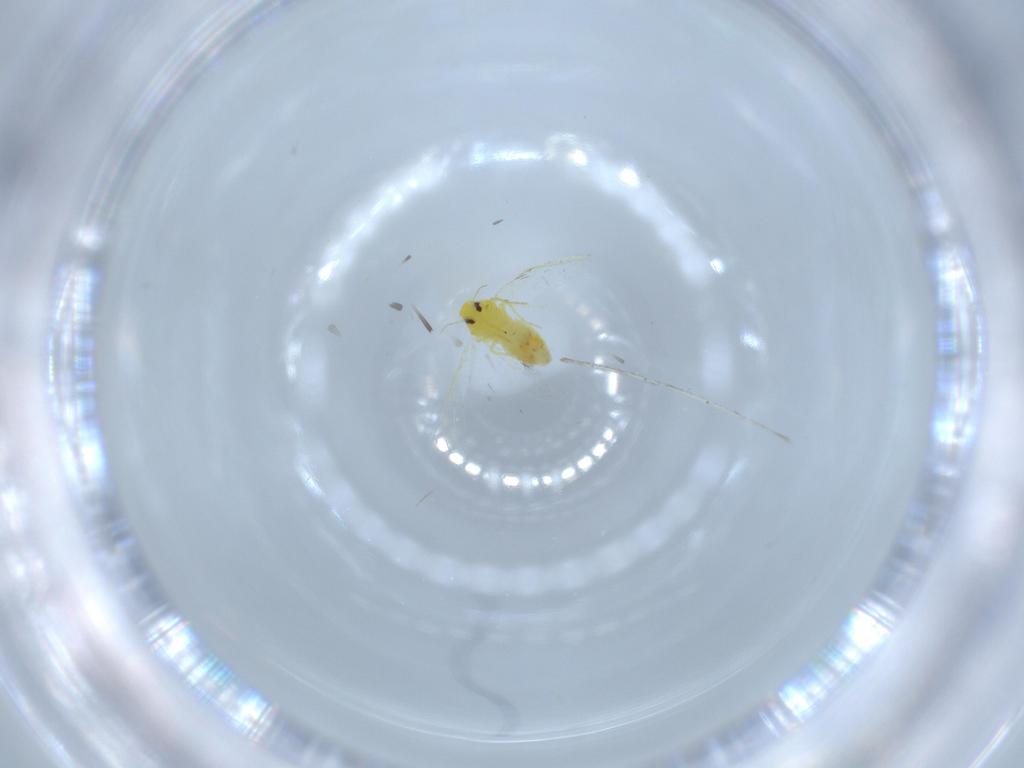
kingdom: Animalia
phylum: Arthropoda
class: Insecta
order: Hemiptera
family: Aleyrodidae
